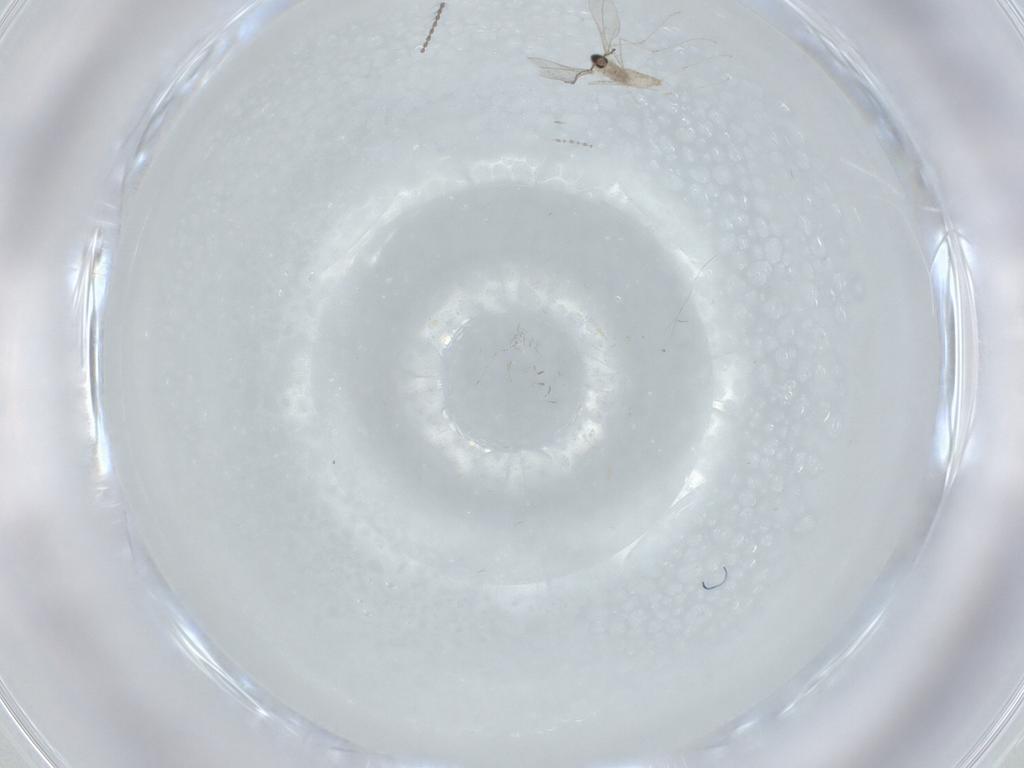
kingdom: Animalia
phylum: Arthropoda
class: Insecta
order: Diptera
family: Cecidomyiidae
